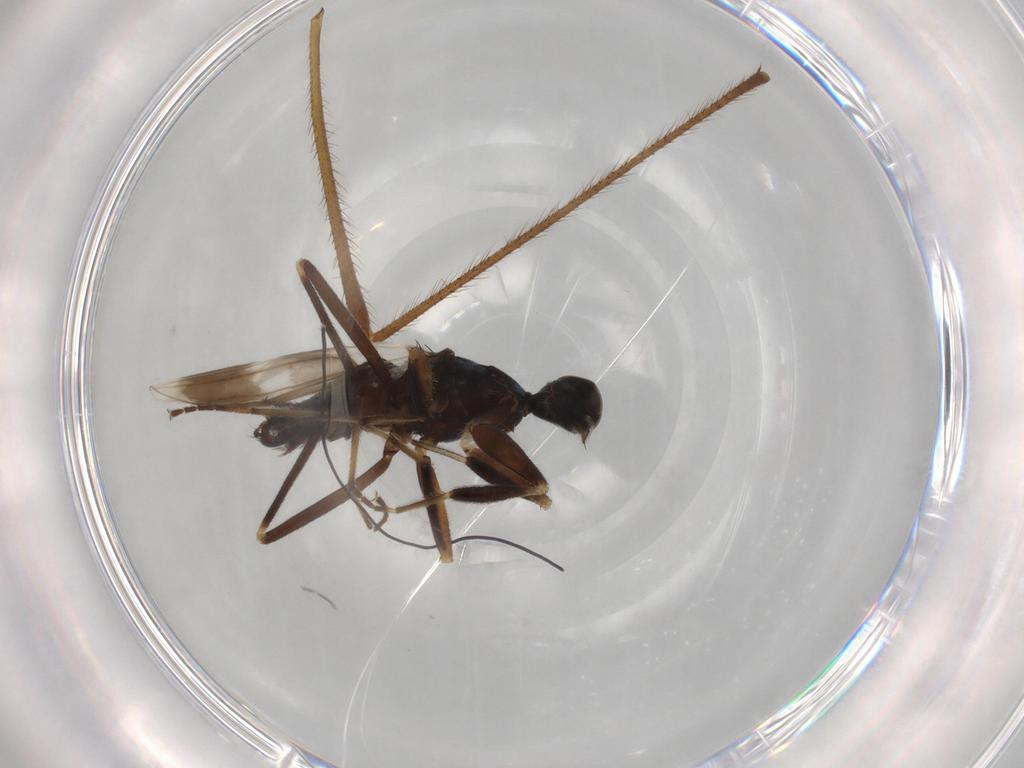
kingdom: Animalia
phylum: Arthropoda
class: Insecta
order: Diptera
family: Hybotidae
